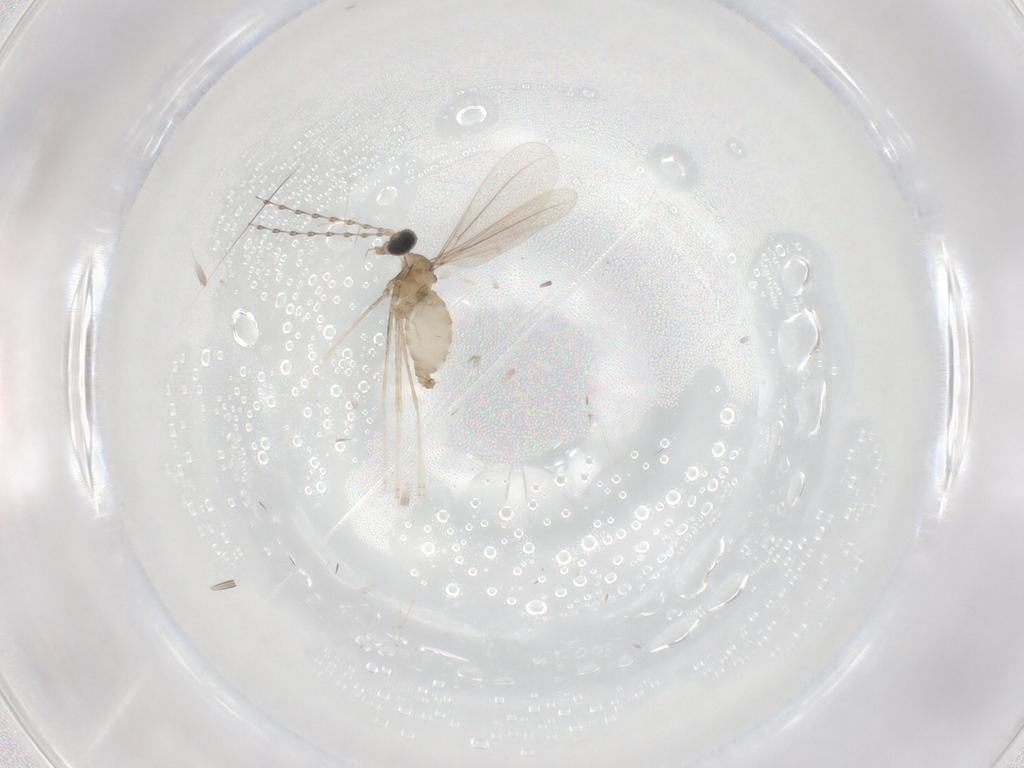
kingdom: Animalia
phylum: Arthropoda
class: Insecta
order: Diptera
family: Cecidomyiidae
